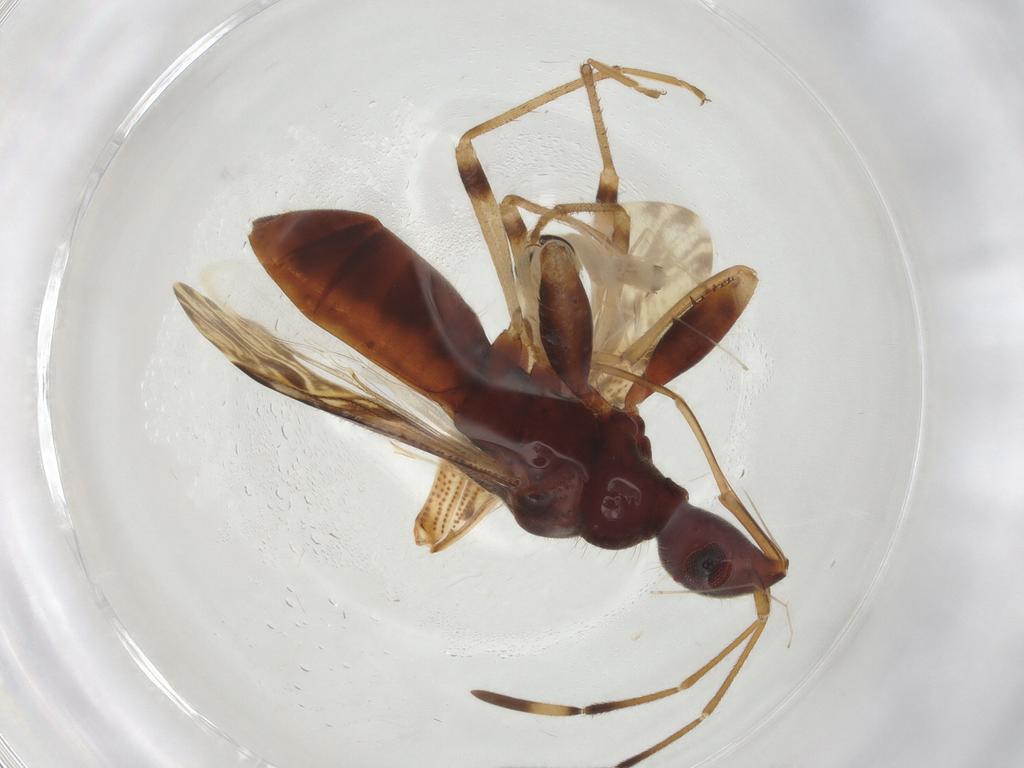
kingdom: Animalia
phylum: Arthropoda
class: Insecta
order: Hemiptera
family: Rhyparochromidae
